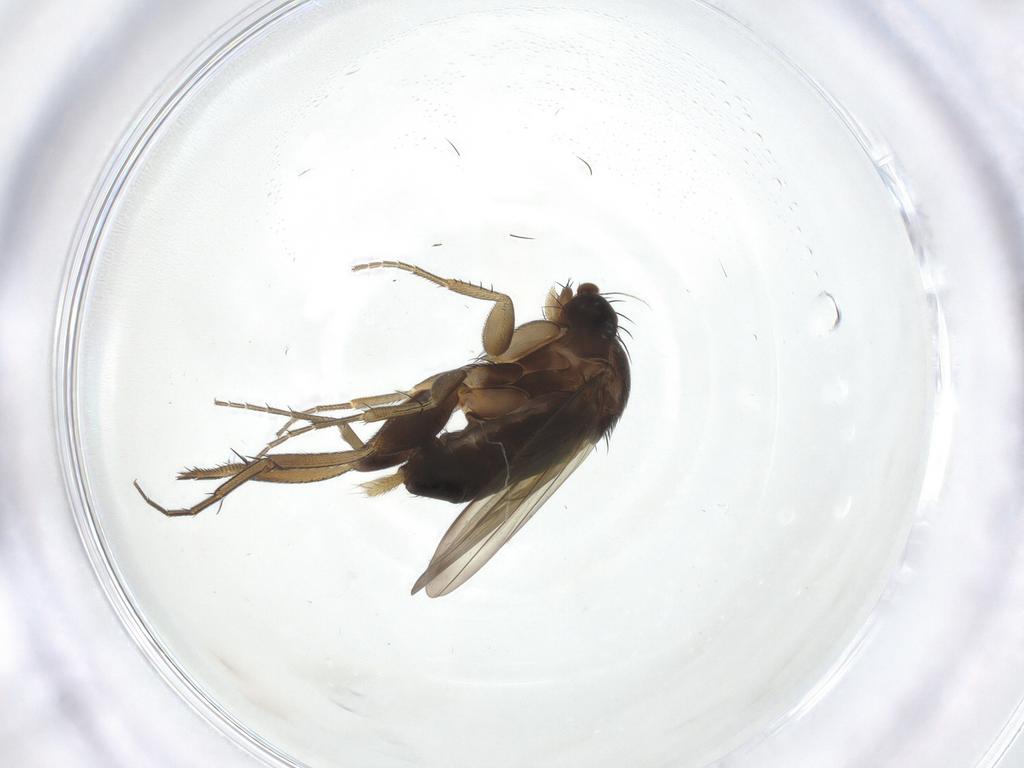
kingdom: Animalia
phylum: Arthropoda
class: Insecta
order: Diptera
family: Phoridae
